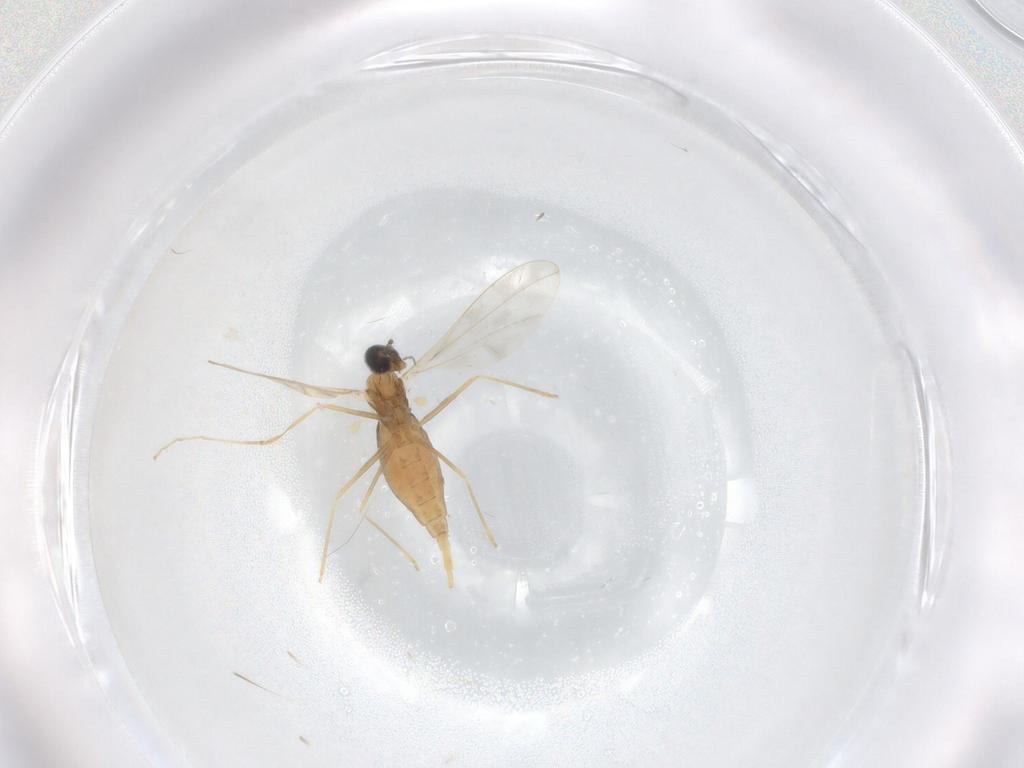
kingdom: Animalia
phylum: Arthropoda
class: Insecta
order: Diptera
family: Cecidomyiidae
